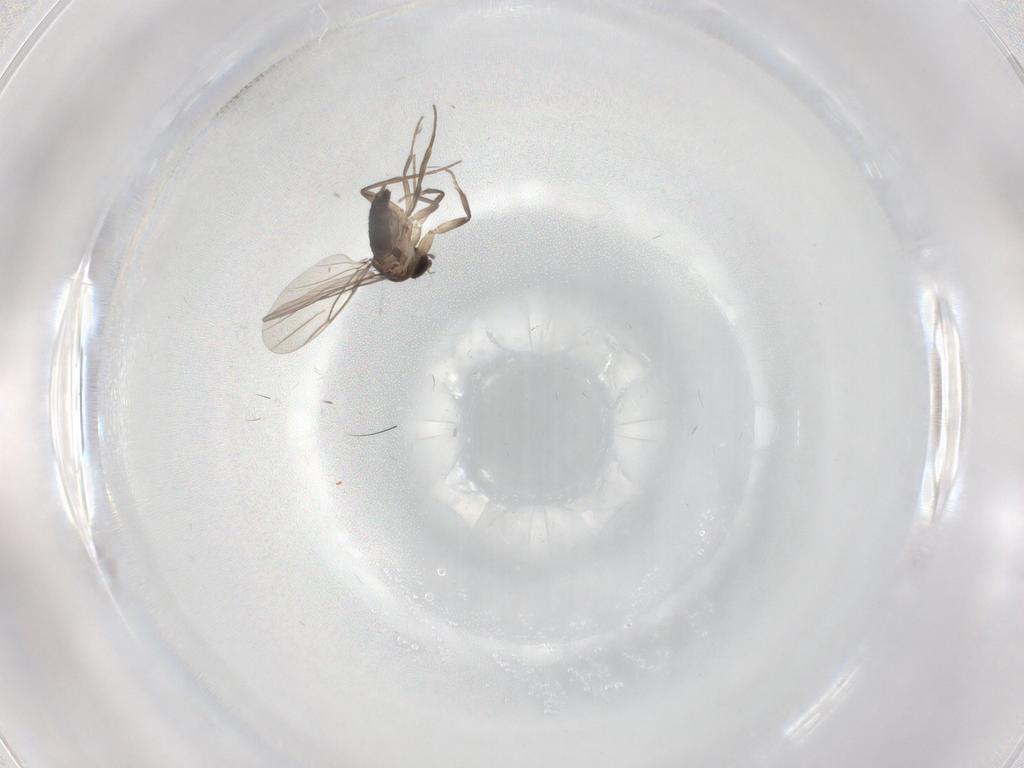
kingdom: Animalia
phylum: Arthropoda
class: Insecta
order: Diptera
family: Phoridae
